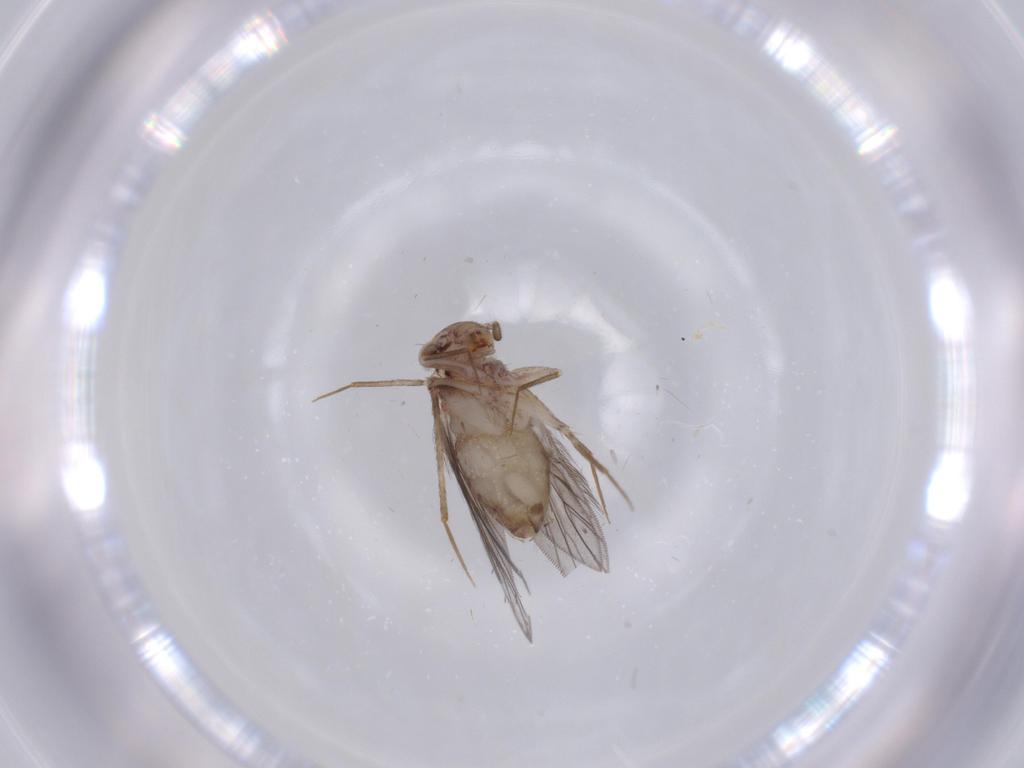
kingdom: Animalia
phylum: Arthropoda
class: Insecta
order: Psocodea
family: Lepidopsocidae
